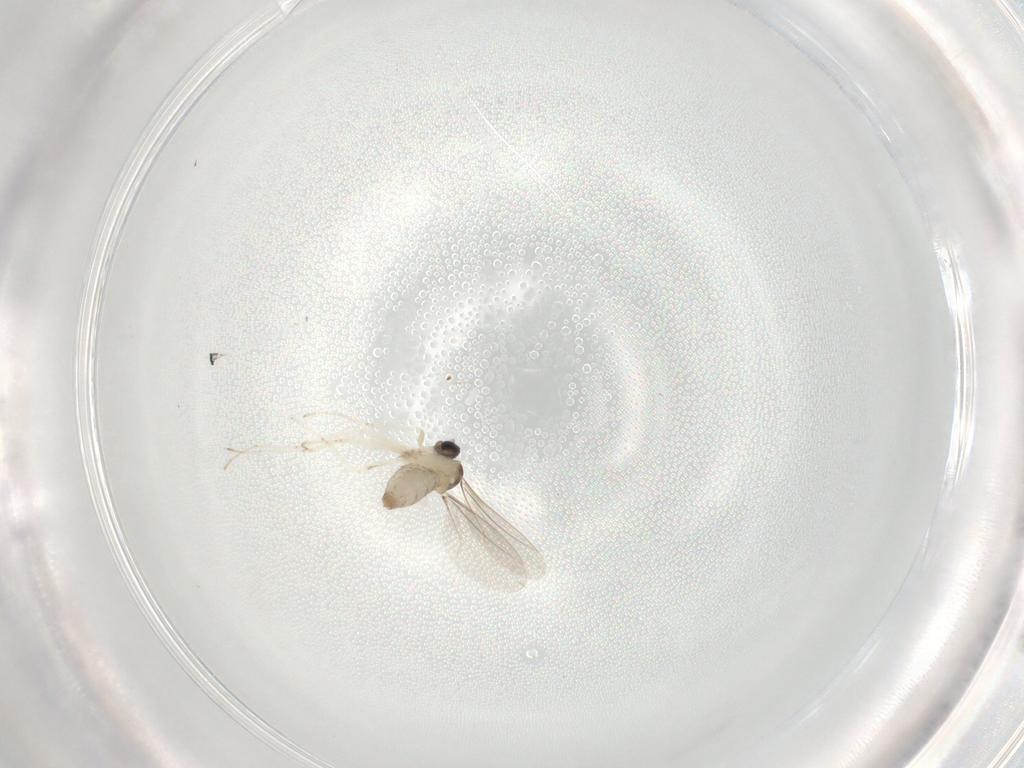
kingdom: Animalia
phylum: Arthropoda
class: Insecta
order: Diptera
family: Cecidomyiidae
